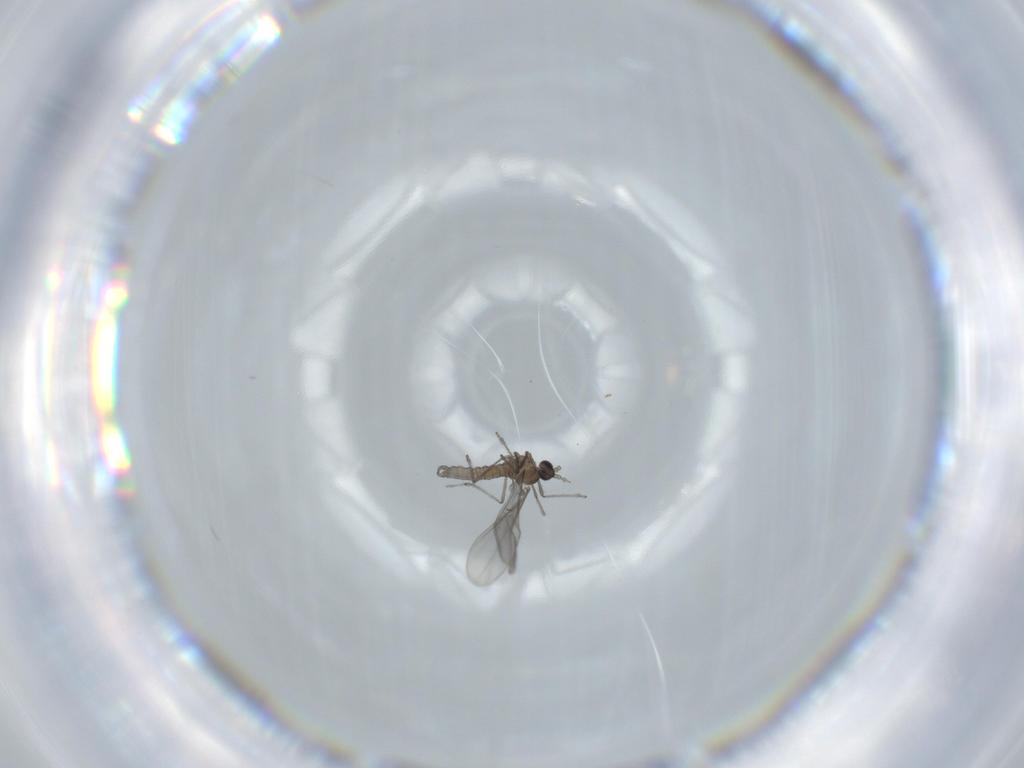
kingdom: Animalia
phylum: Arthropoda
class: Insecta
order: Diptera
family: Cecidomyiidae
